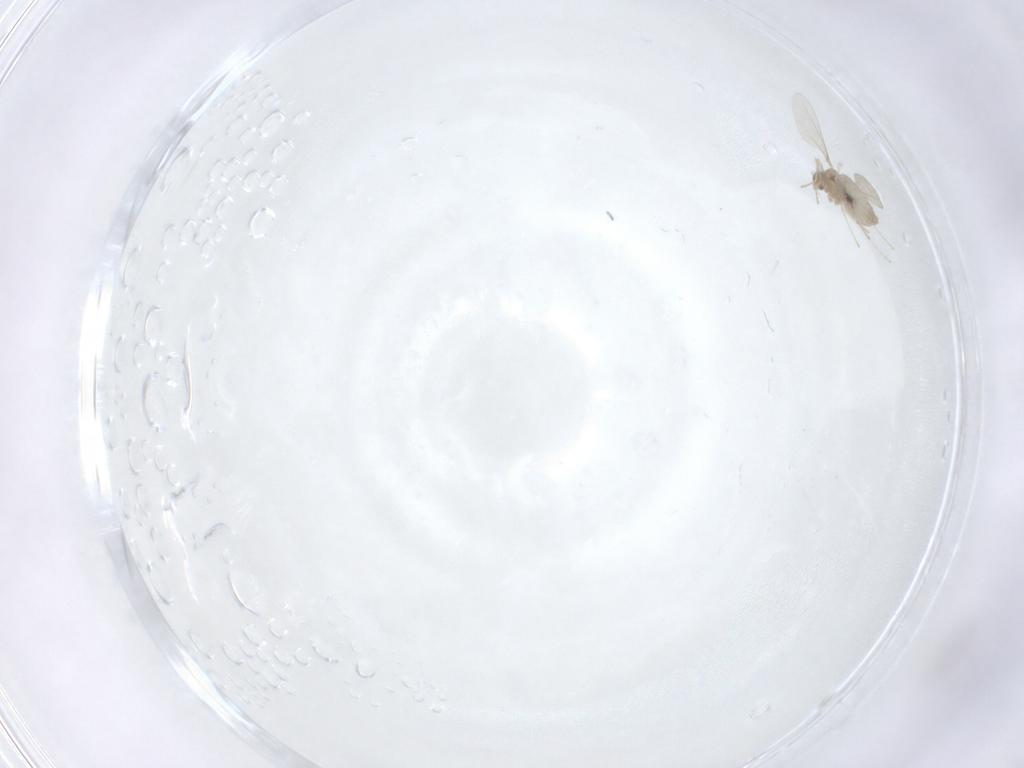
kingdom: Animalia
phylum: Arthropoda
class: Insecta
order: Diptera
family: Cecidomyiidae
